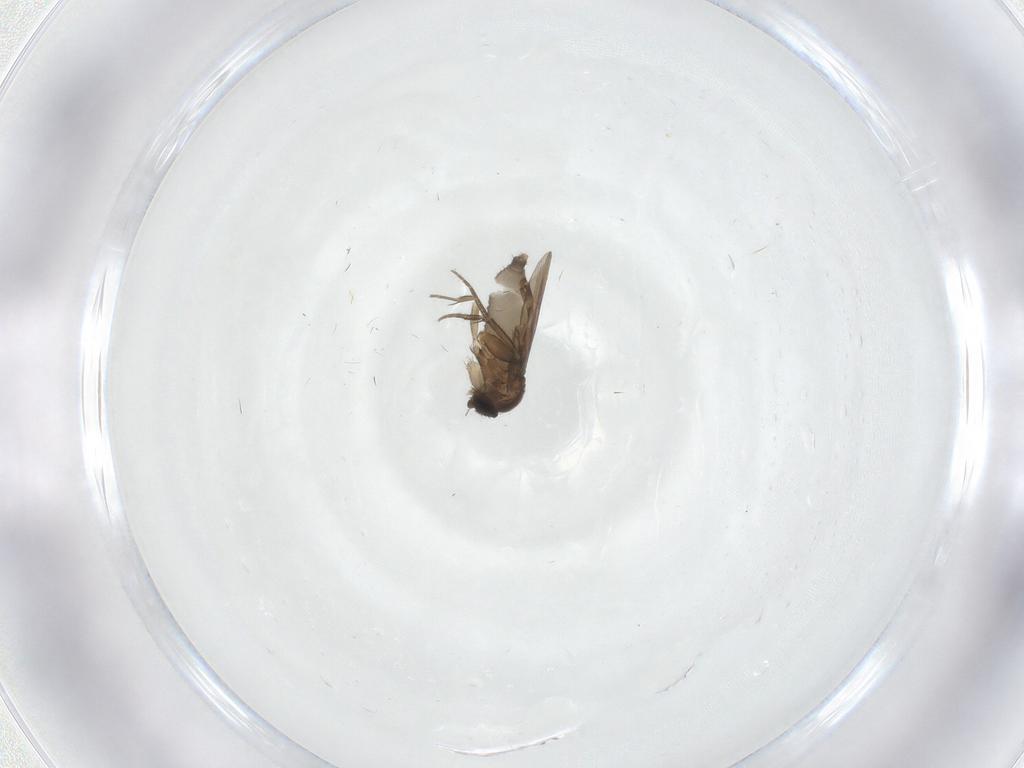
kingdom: Animalia
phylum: Arthropoda
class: Insecta
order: Diptera
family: Phoridae
